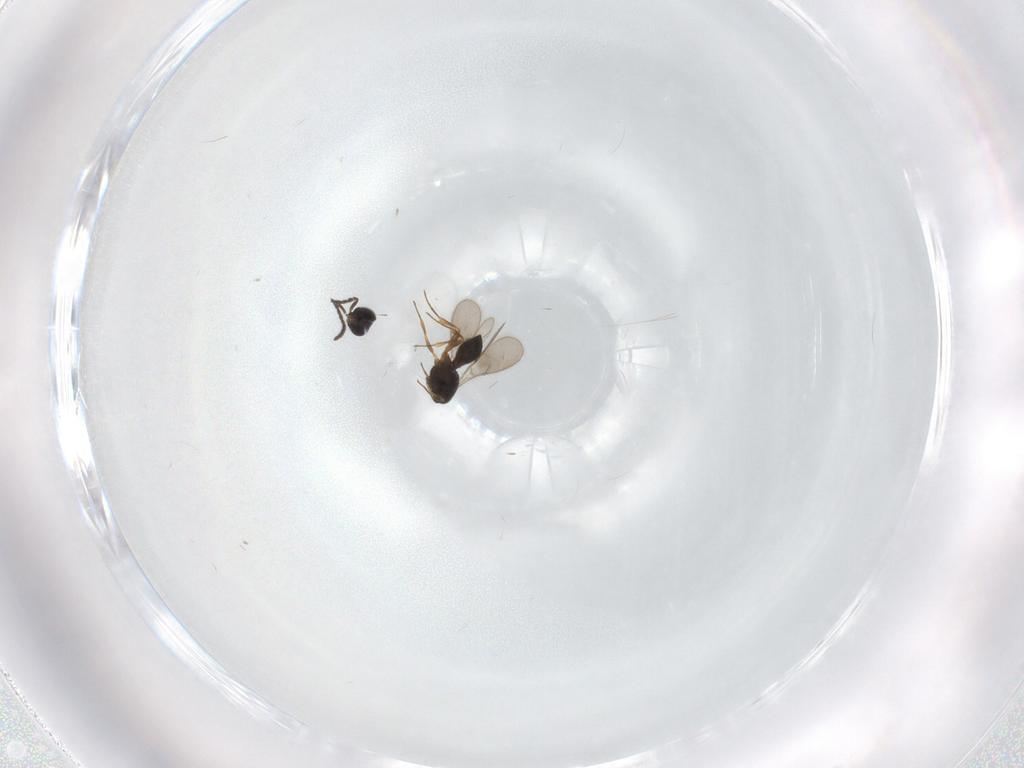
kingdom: Animalia
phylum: Arthropoda
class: Insecta
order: Hymenoptera
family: Scelionidae
